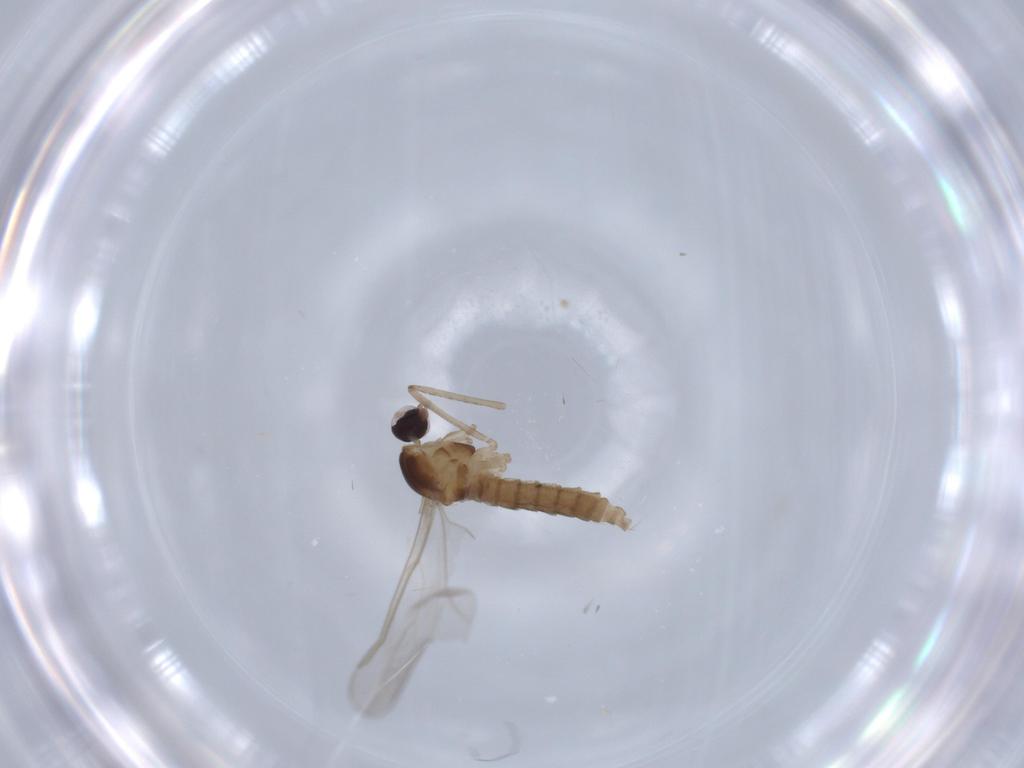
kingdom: Animalia
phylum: Arthropoda
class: Insecta
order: Diptera
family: Cecidomyiidae
